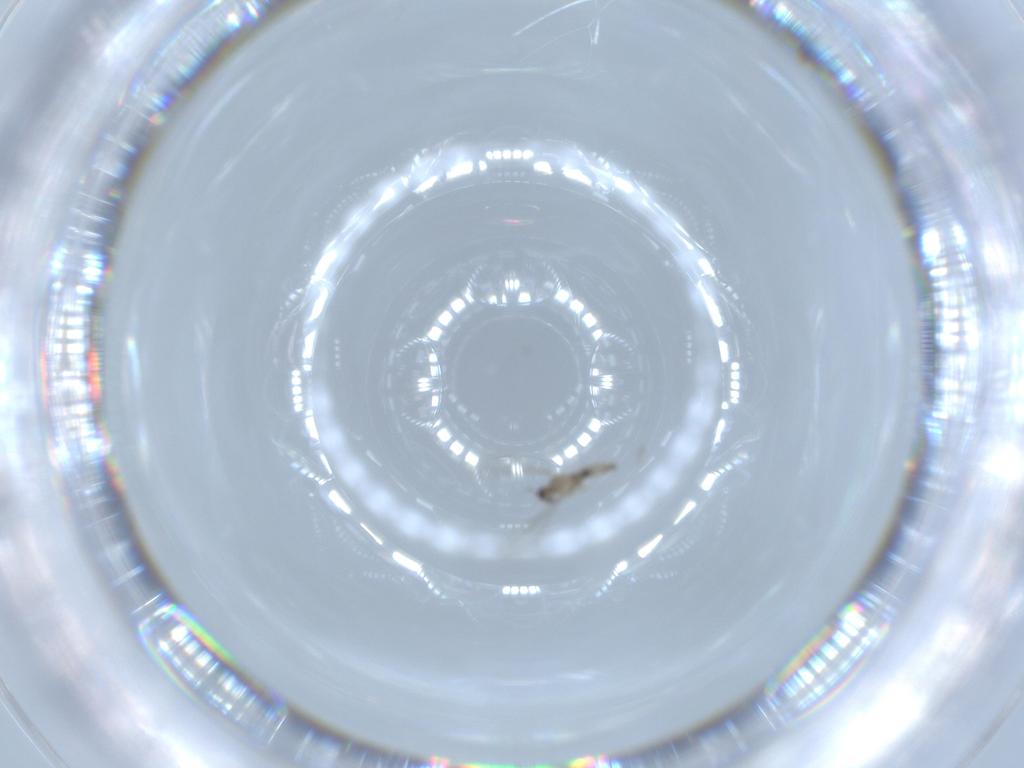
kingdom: Animalia
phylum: Arthropoda
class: Insecta
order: Diptera
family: Cecidomyiidae
